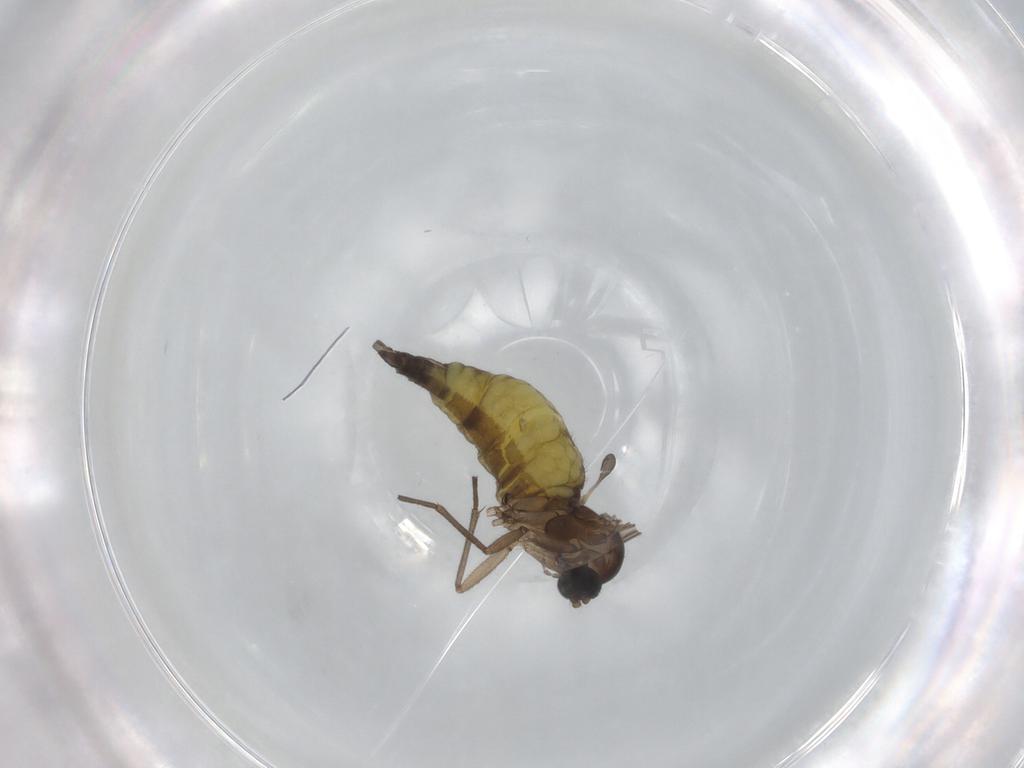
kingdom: Animalia
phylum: Arthropoda
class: Insecta
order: Diptera
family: Sciaridae
